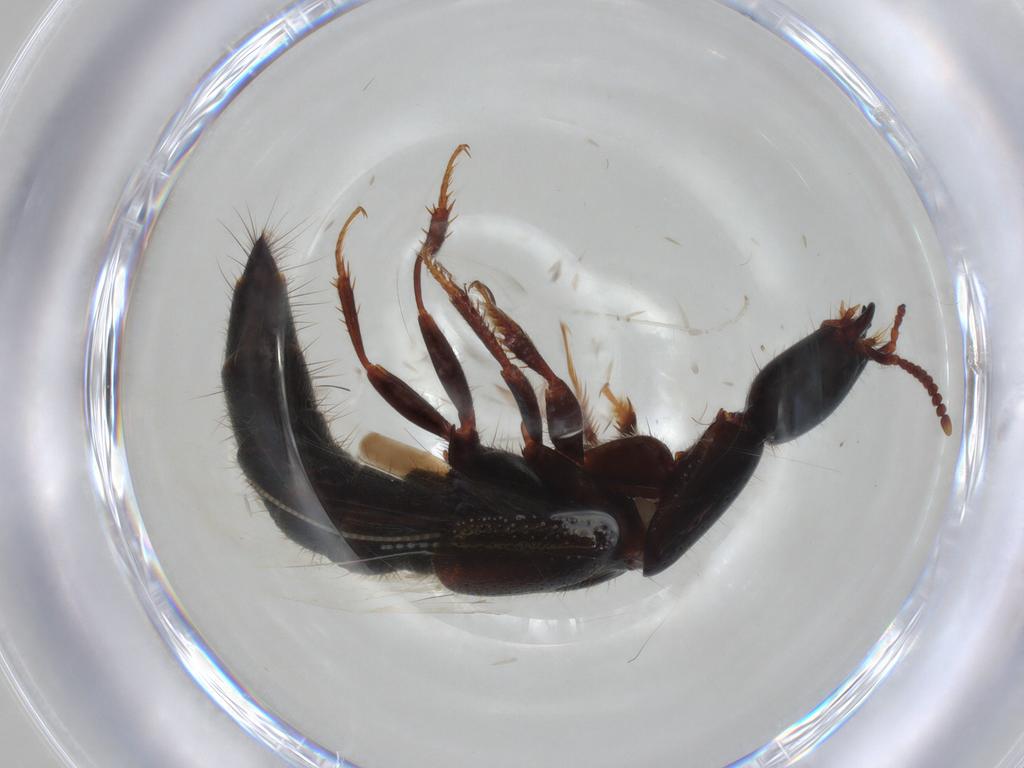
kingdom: Animalia
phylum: Arthropoda
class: Insecta
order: Coleoptera
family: Staphylinidae
